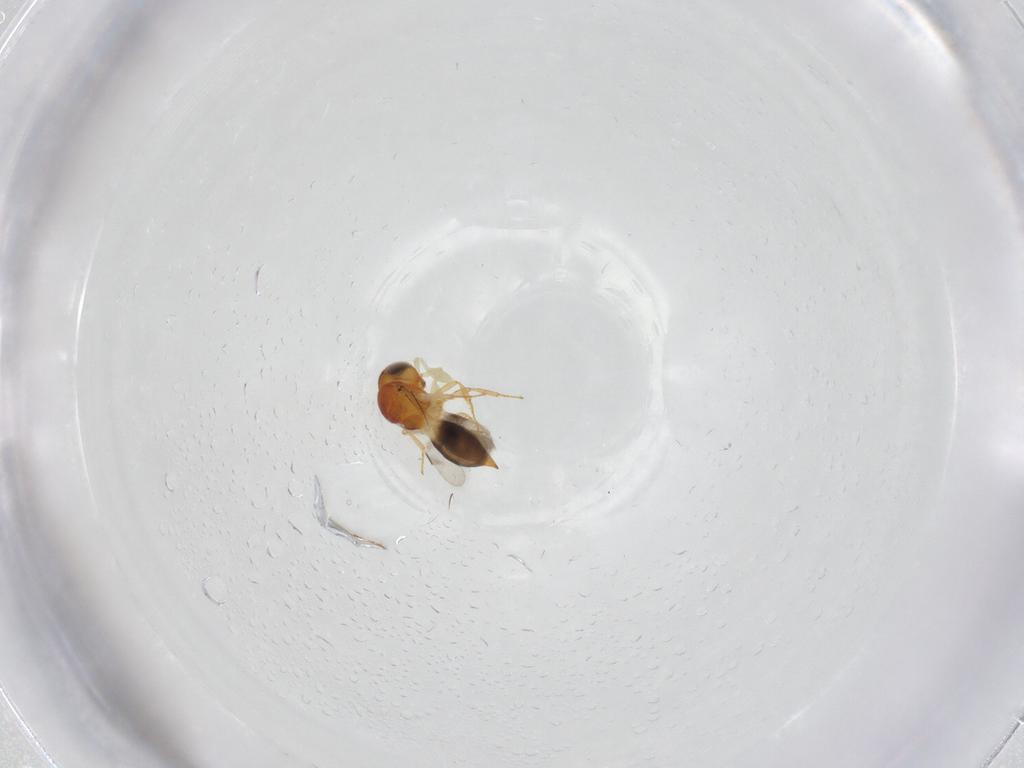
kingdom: Animalia
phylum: Arthropoda
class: Insecta
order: Hymenoptera
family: Scelionidae
